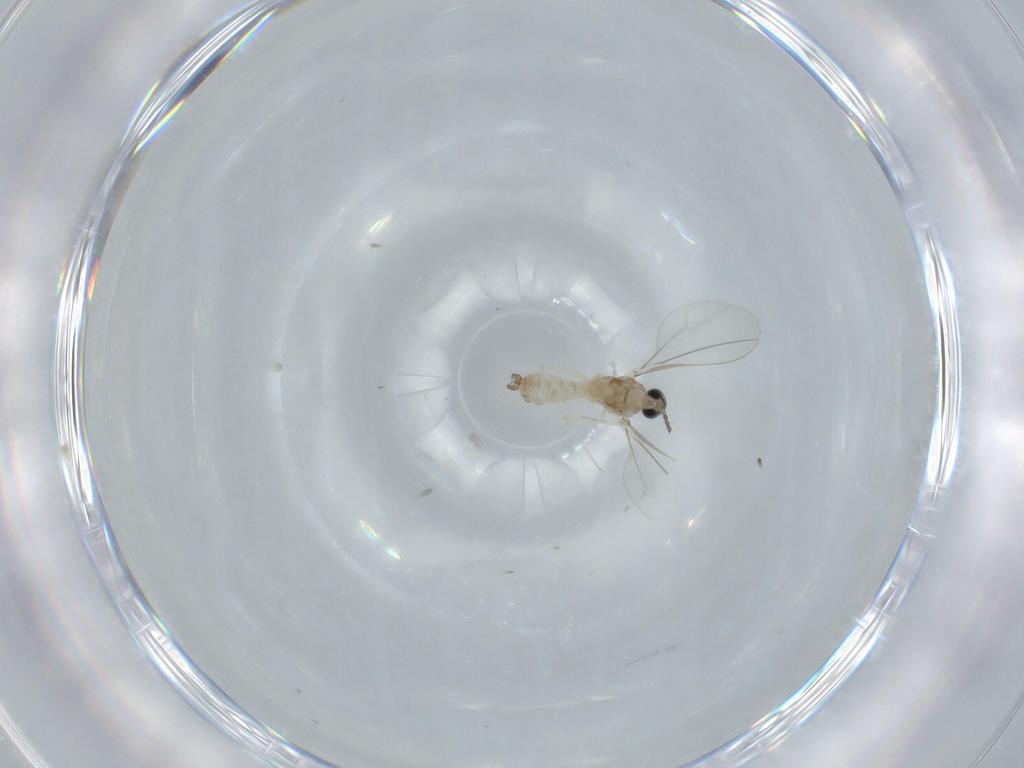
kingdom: Animalia
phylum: Arthropoda
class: Insecta
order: Diptera
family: Cecidomyiidae
